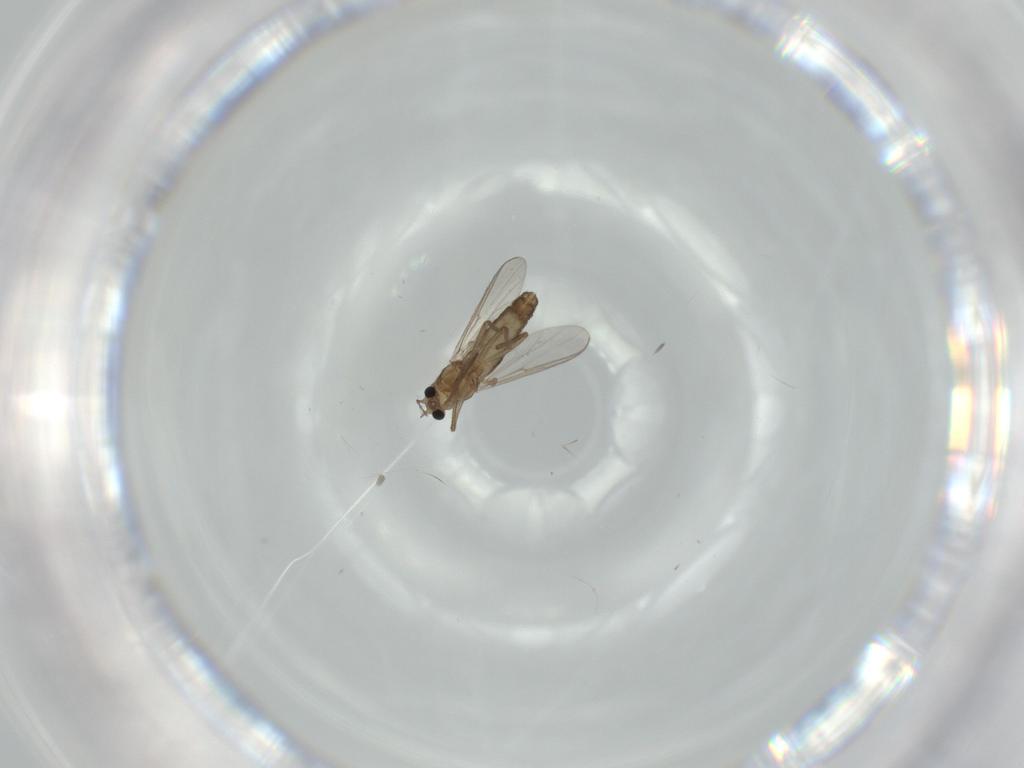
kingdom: Animalia
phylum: Arthropoda
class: Insecta
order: Diptera
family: Chironomidae
